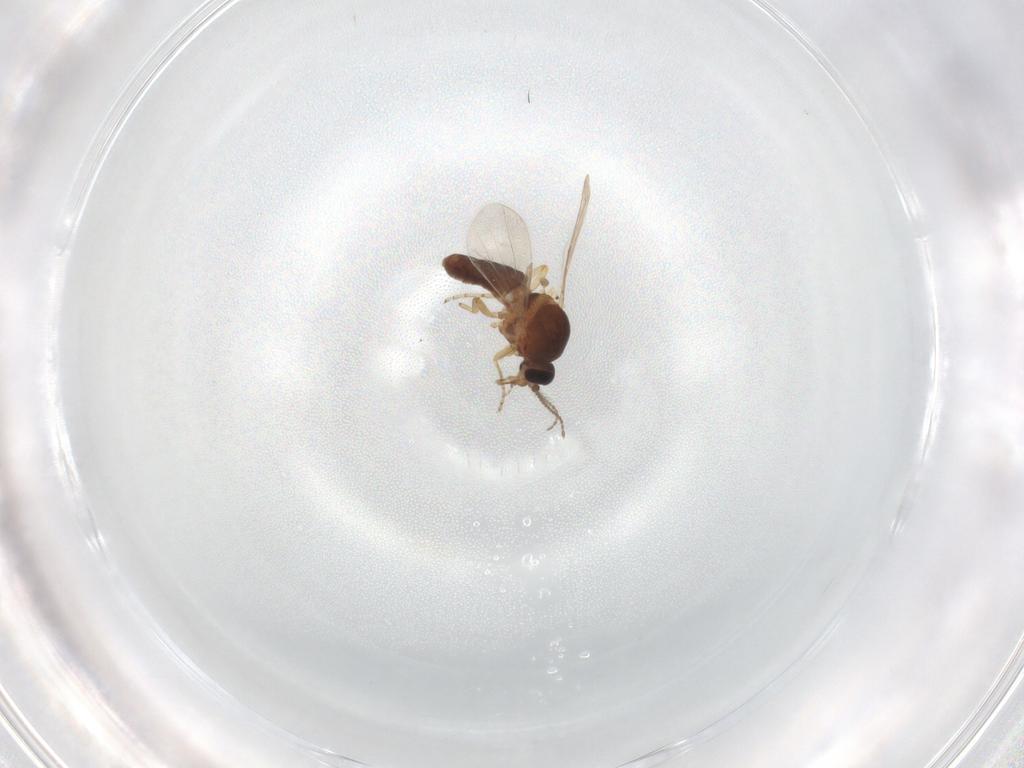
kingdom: Animalia
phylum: Arthropoda
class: Insecta
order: Diptera
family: Ceratopogonidae
